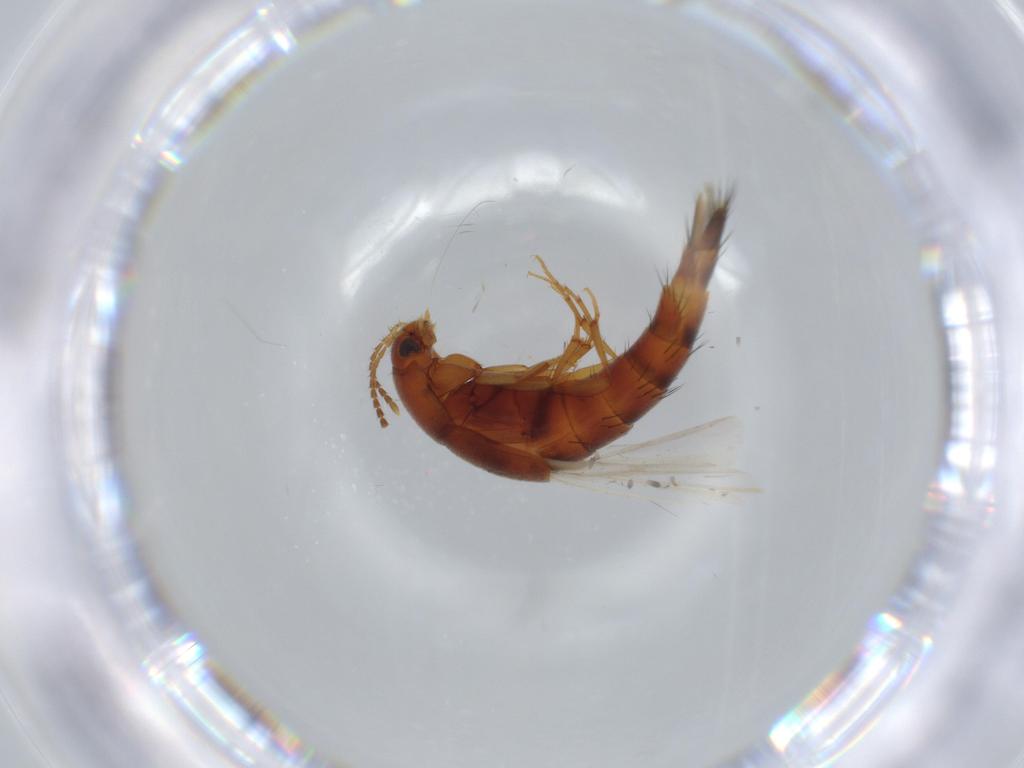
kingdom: Animalia
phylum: Arthropoda
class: Insecta
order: Coleoptera
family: Staphylinidae
